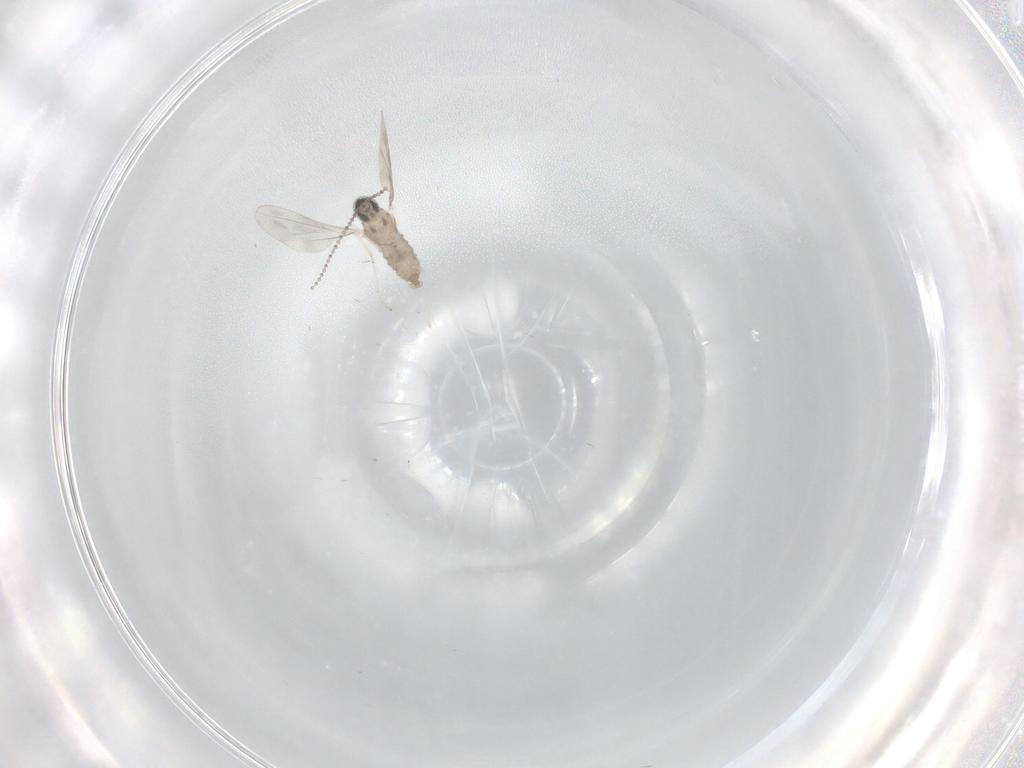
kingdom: Animalia
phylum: Arthropoda
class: Insecta
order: Diptera
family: Cecidomyiidae
